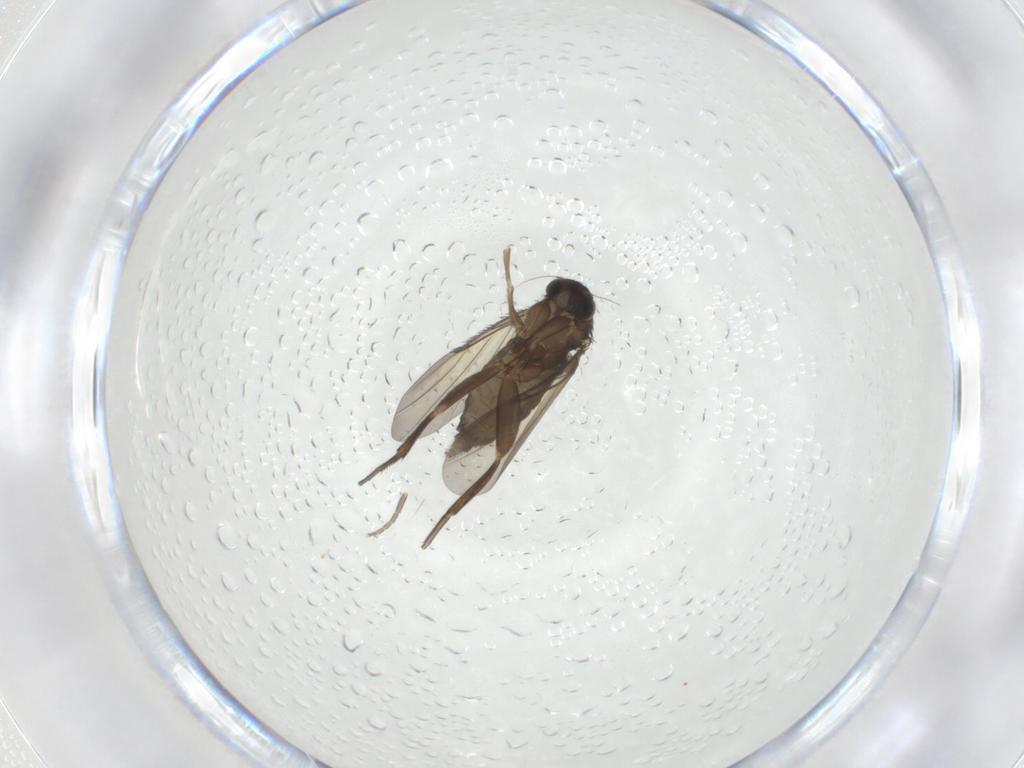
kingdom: Animalia
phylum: Arthropoda
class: Insecta
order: Diptera
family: Phoridae
